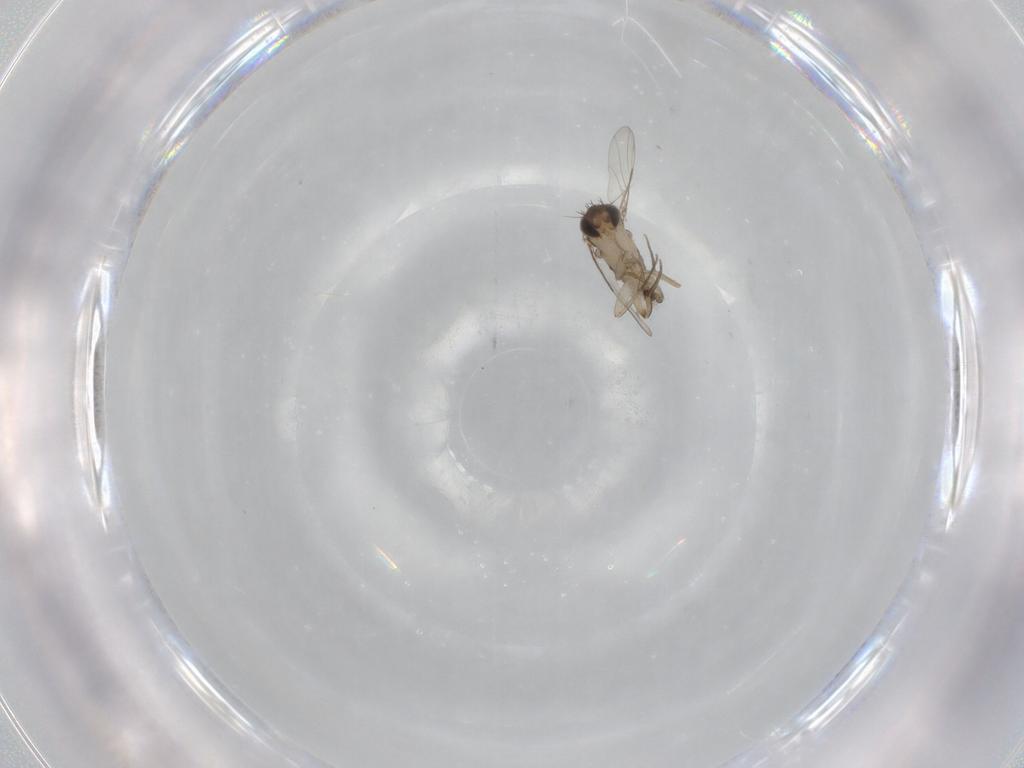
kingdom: Animalia
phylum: Arthropoda
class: Insecta
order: Diptera
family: Phoridae
